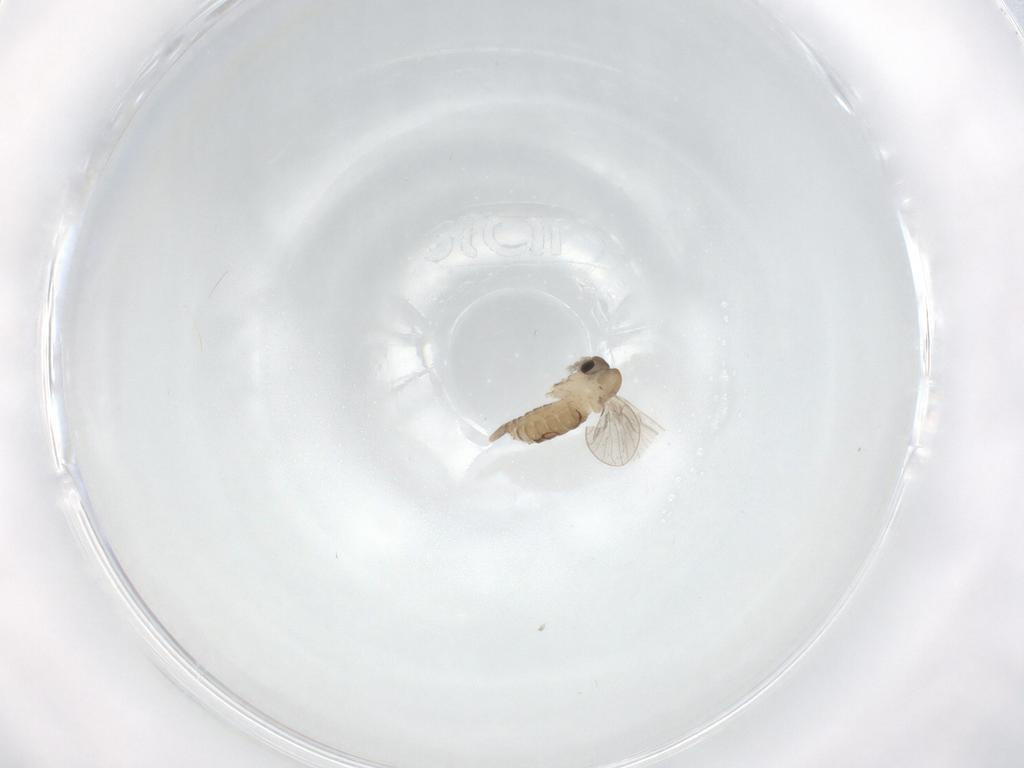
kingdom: Animalia
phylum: Arthropoda
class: Insecta
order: Diptera
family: Psychodidae
